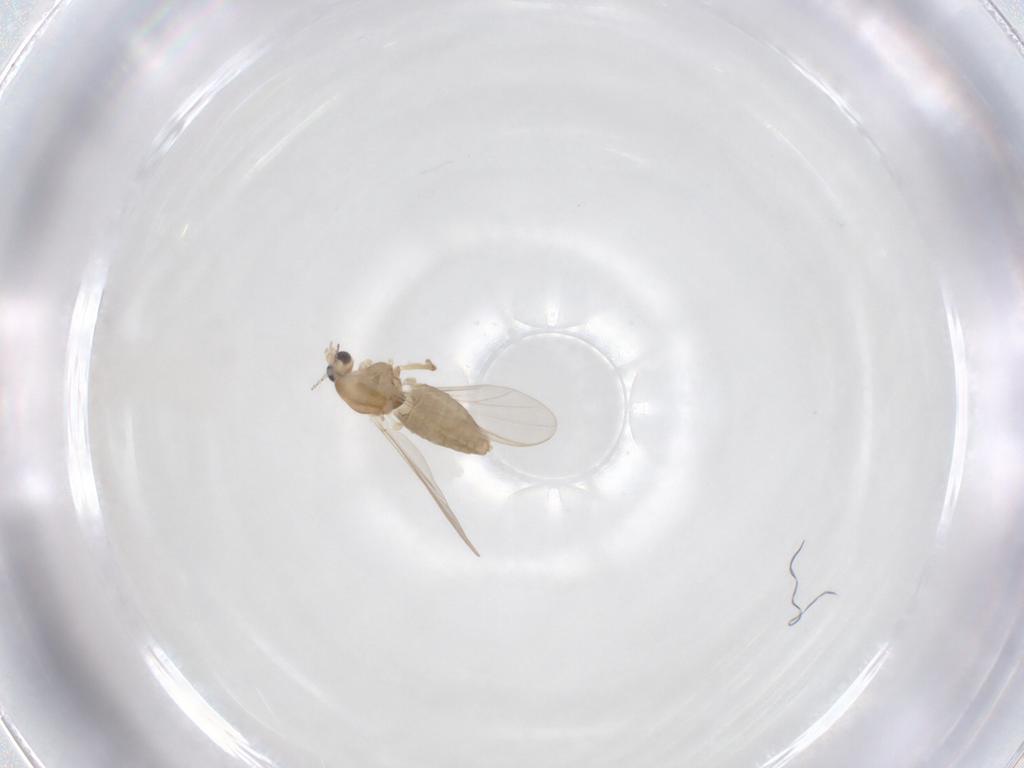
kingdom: Animalia
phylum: Arthropoda
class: Insecta
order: Diptera
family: Chironomidae
